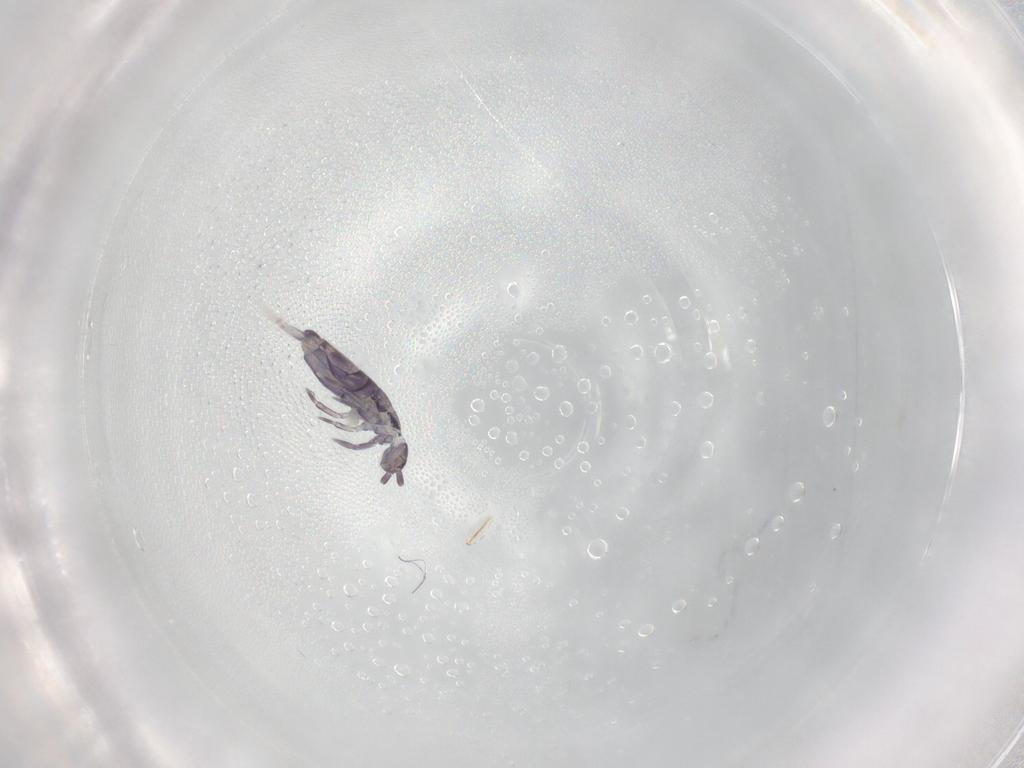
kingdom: Animalia
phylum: Arthropoda
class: Collembola
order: Entomobryomorpha
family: Entomobryidae
